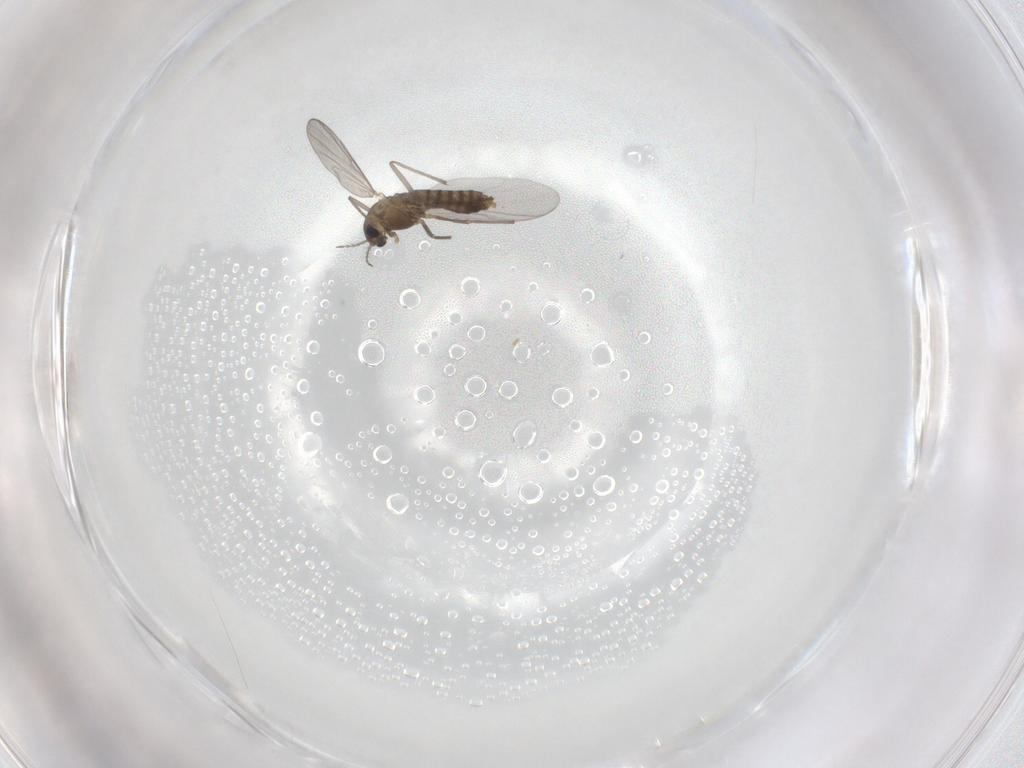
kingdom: Animalia
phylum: Arthropoda
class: Insecta
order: Diptera
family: Chironomidae
